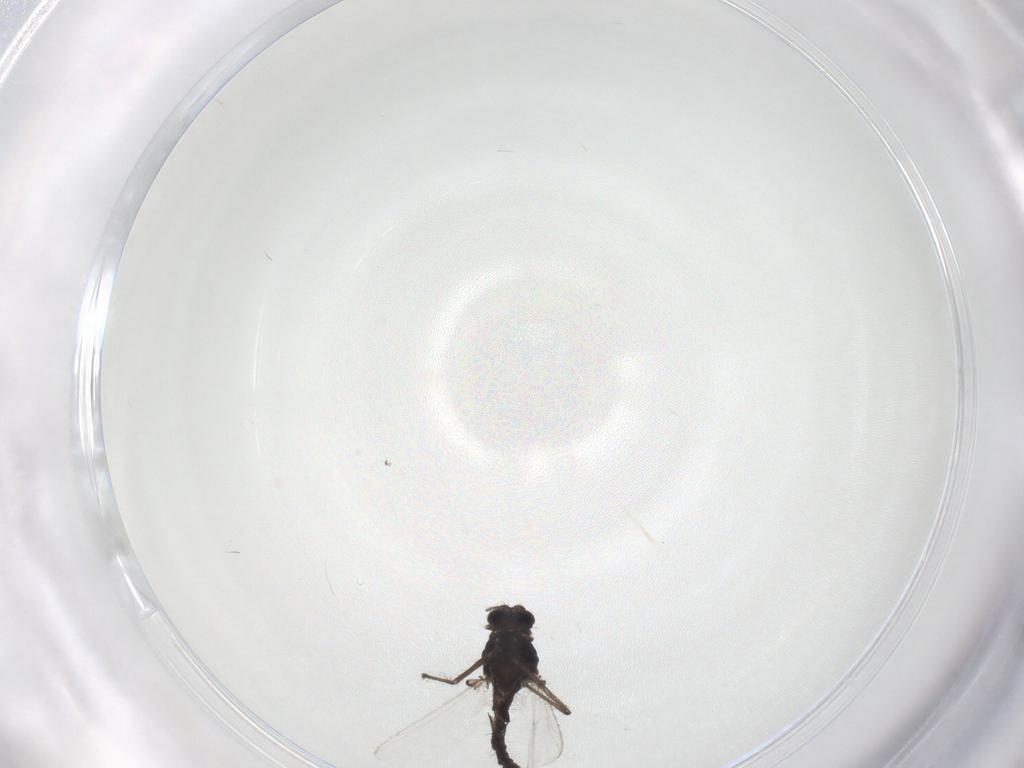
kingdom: Animalia
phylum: Arthropoda
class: Insecta
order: Diptera
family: Chironomidae
